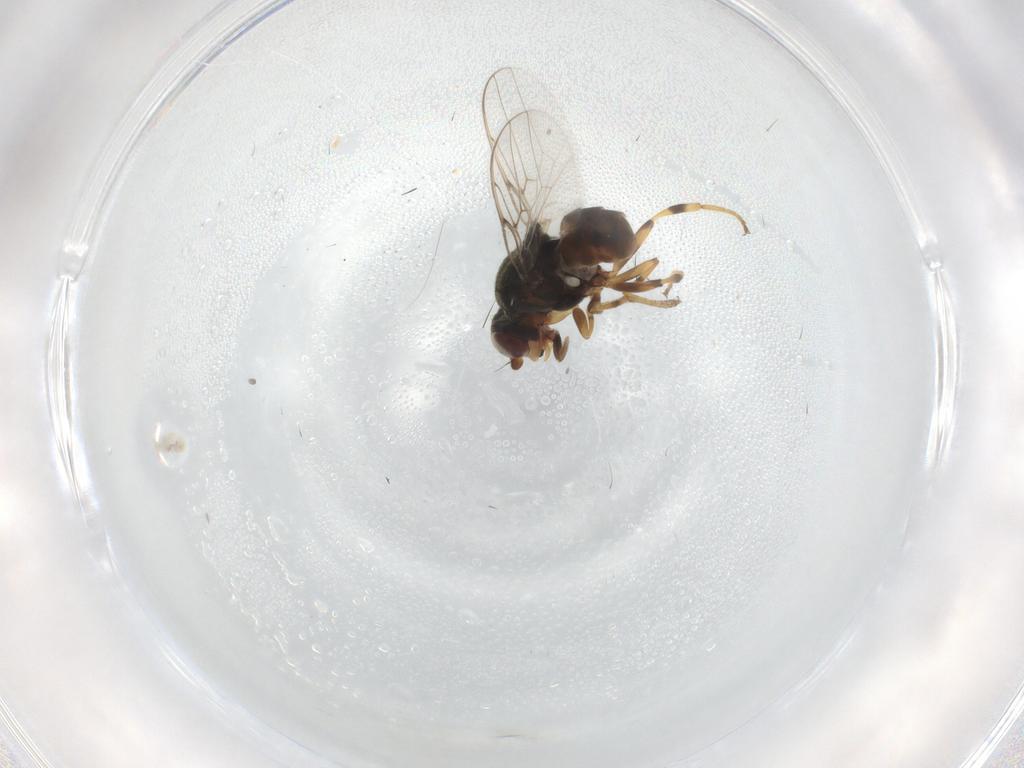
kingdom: Animalia
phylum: Arthropoda
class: Insecta
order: Diptera
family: Chloropidae
